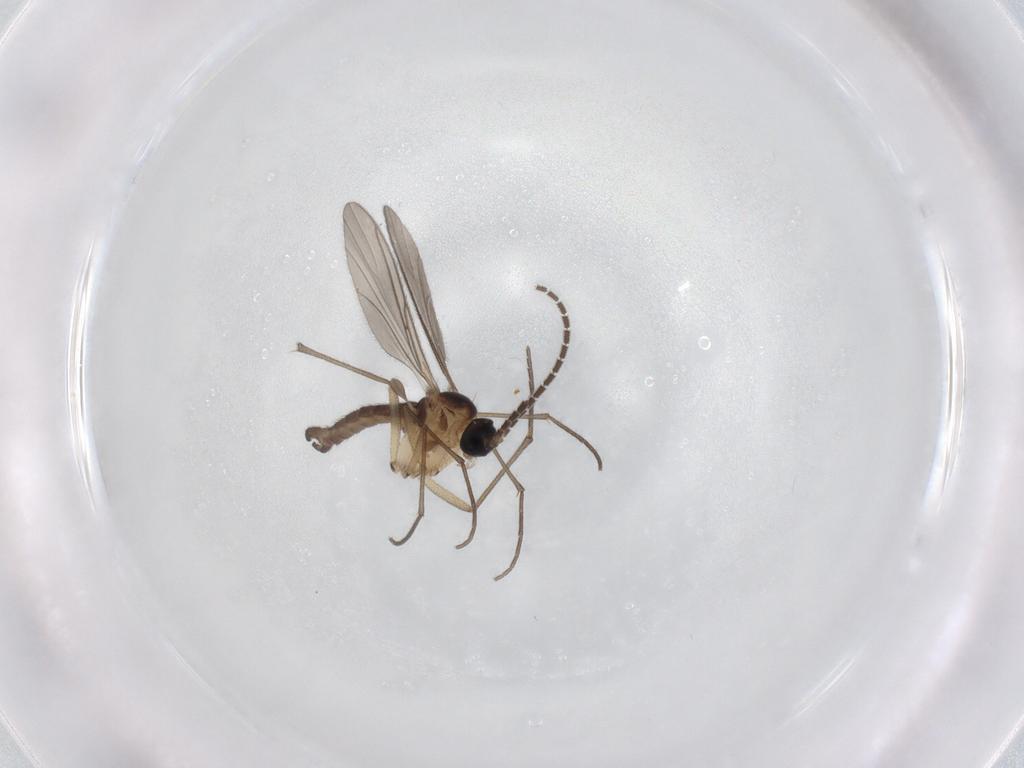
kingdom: Animalia
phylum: Arthropoda
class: Insecta
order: Diptera
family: Sciaridae
